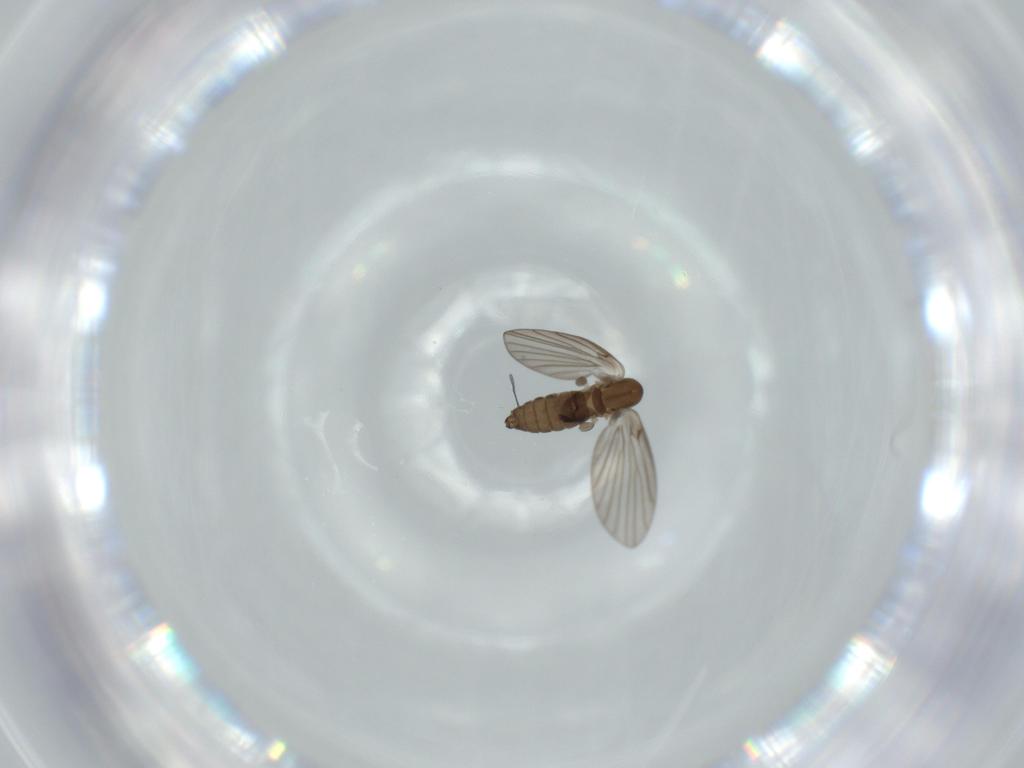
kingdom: Animalia
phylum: Arthropoda
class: Insecta
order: Diptera
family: Psychodidae
